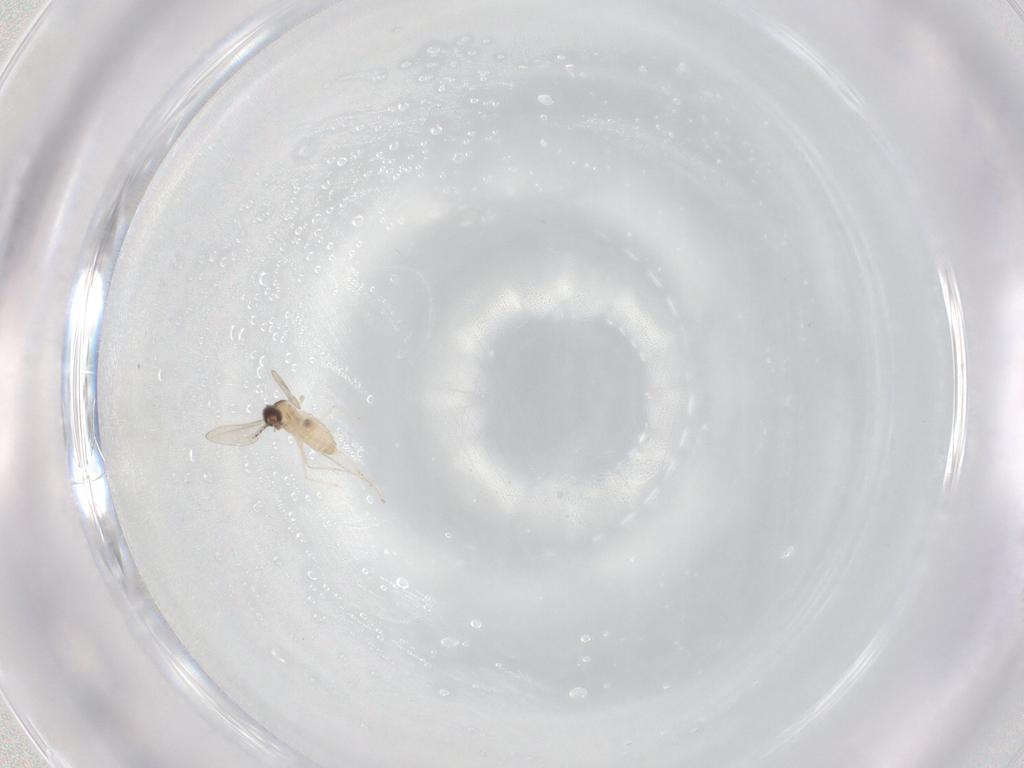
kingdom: Animalia
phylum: Arthropoda
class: Insecta
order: Diptera
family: Cecidomyiidae
